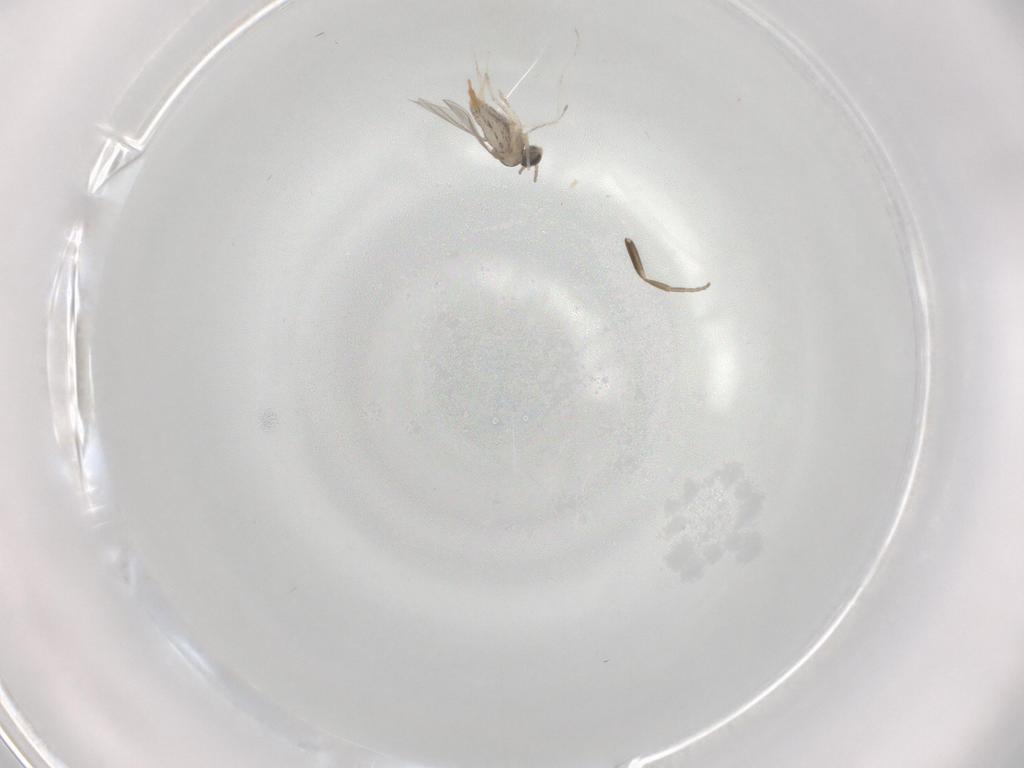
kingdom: Animalia
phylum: Arthropoda
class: Insecta
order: Diptera
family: Cecidomyiidae
